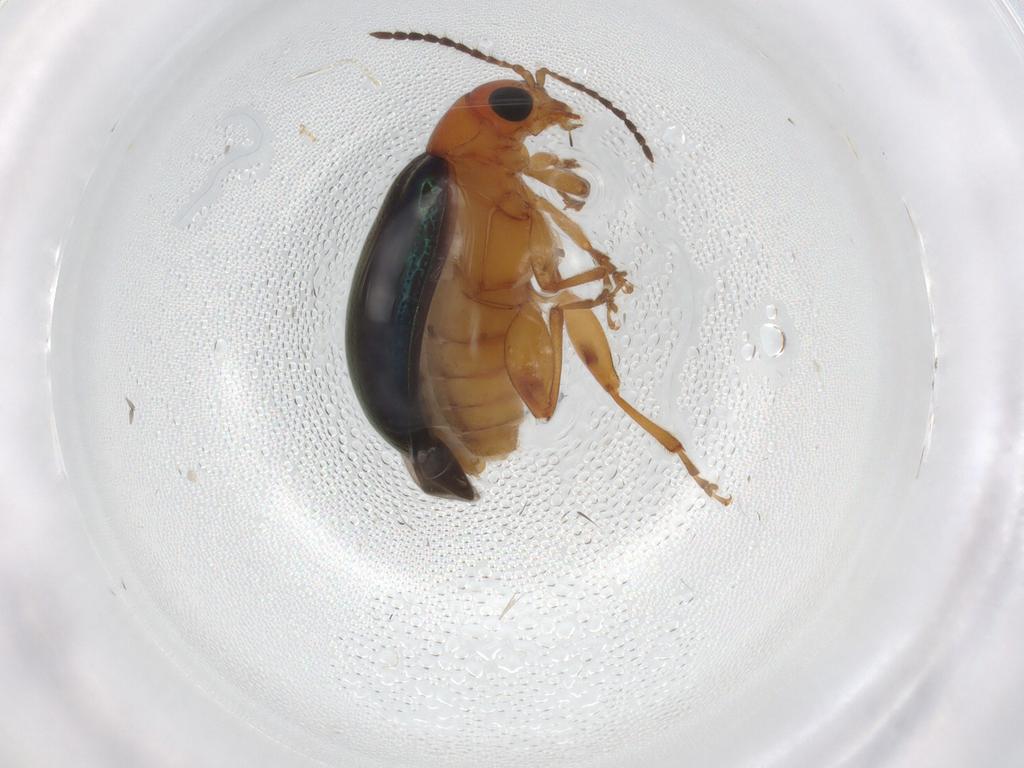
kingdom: Animalia
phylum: Arthropoda
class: Insecta
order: Coleoptera
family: Chrysomelidae
